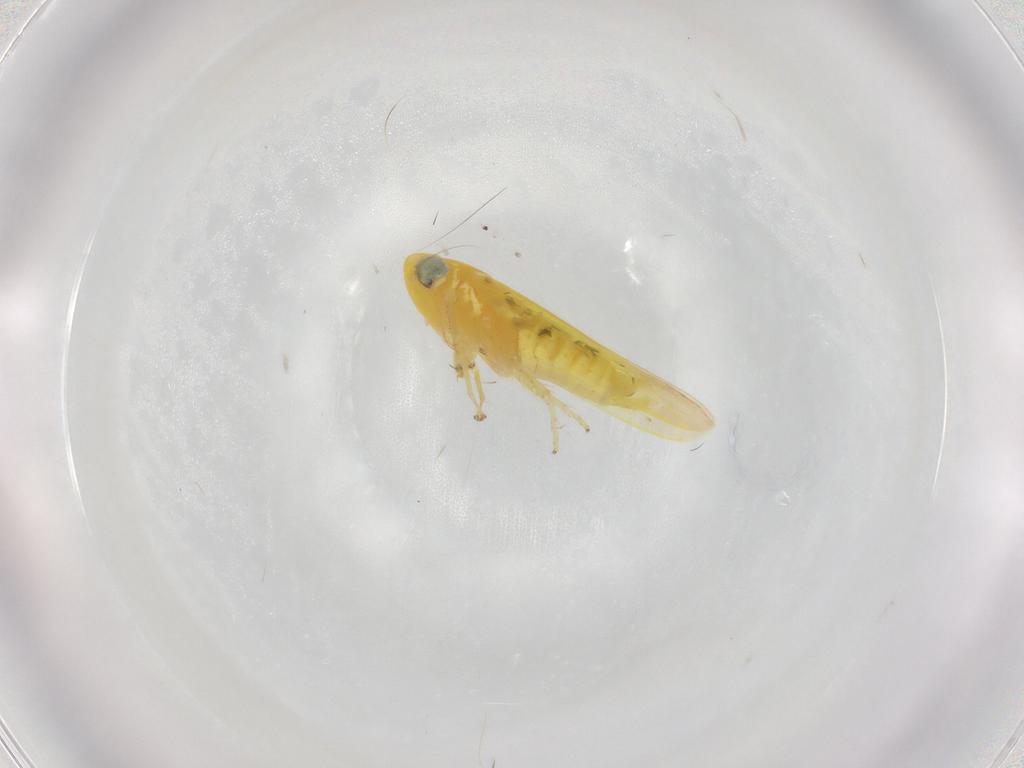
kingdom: Animalia
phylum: Arthropoda
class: Insecta
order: Hemiptera
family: Cicadellidae
